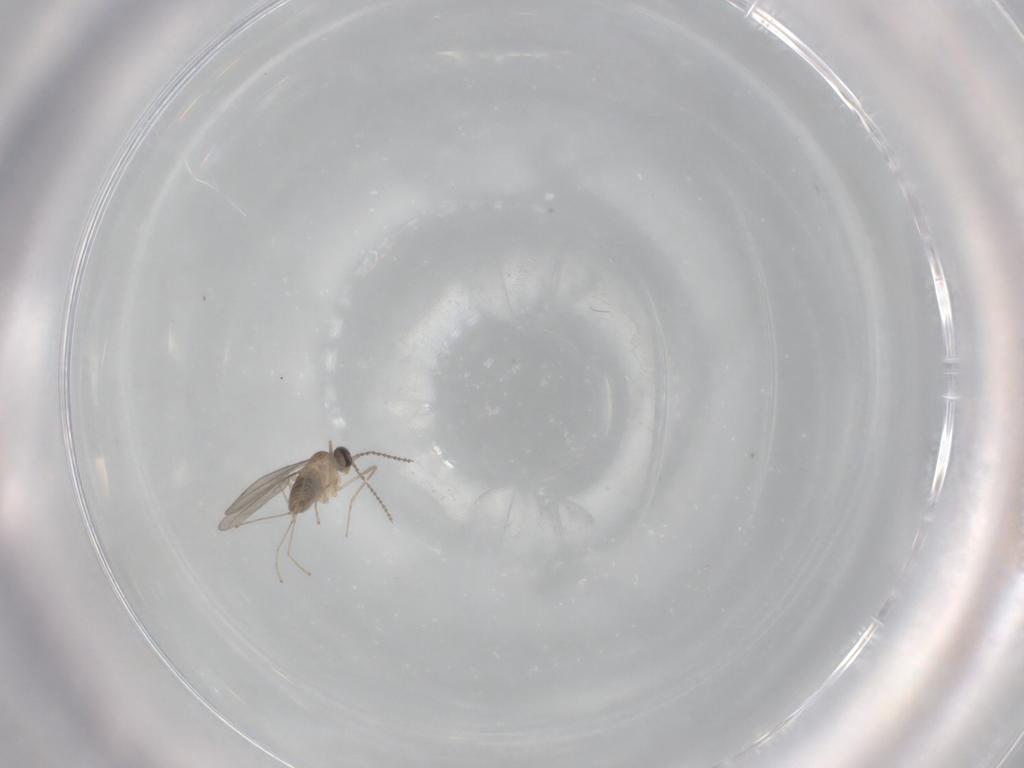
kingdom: Animalia
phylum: Arthropoda
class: Insecta
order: Diptera
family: Cecidomyiidae
